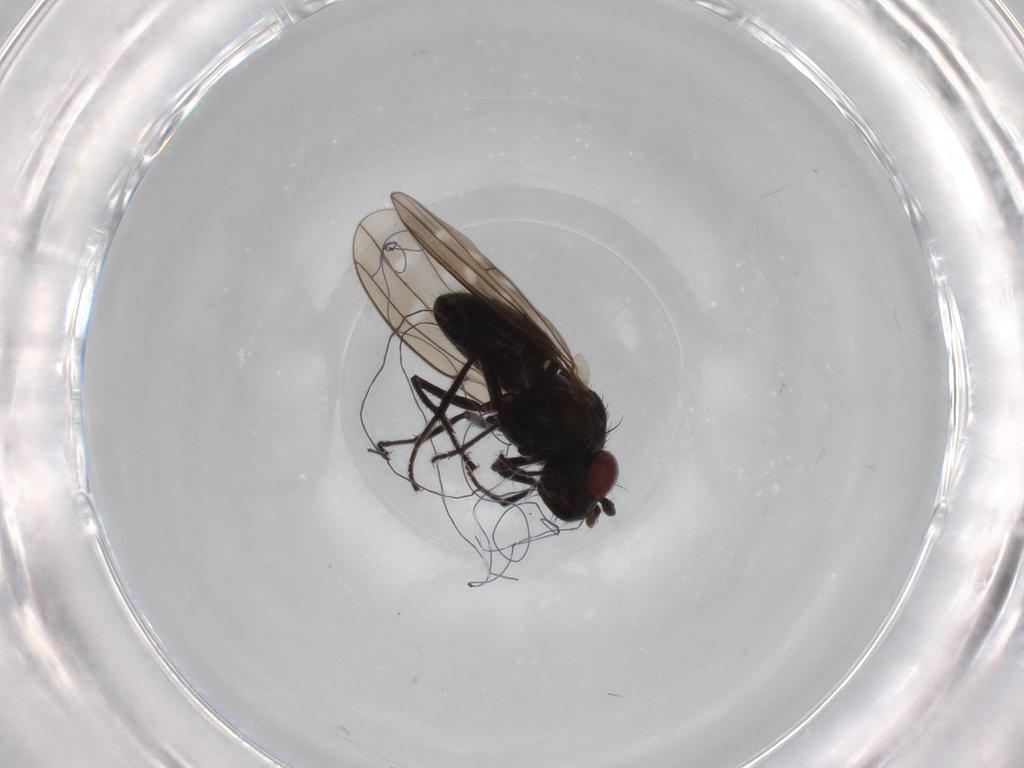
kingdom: Animalia
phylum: Arthropoda
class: Insecta
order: Diptera
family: Ephydridae
